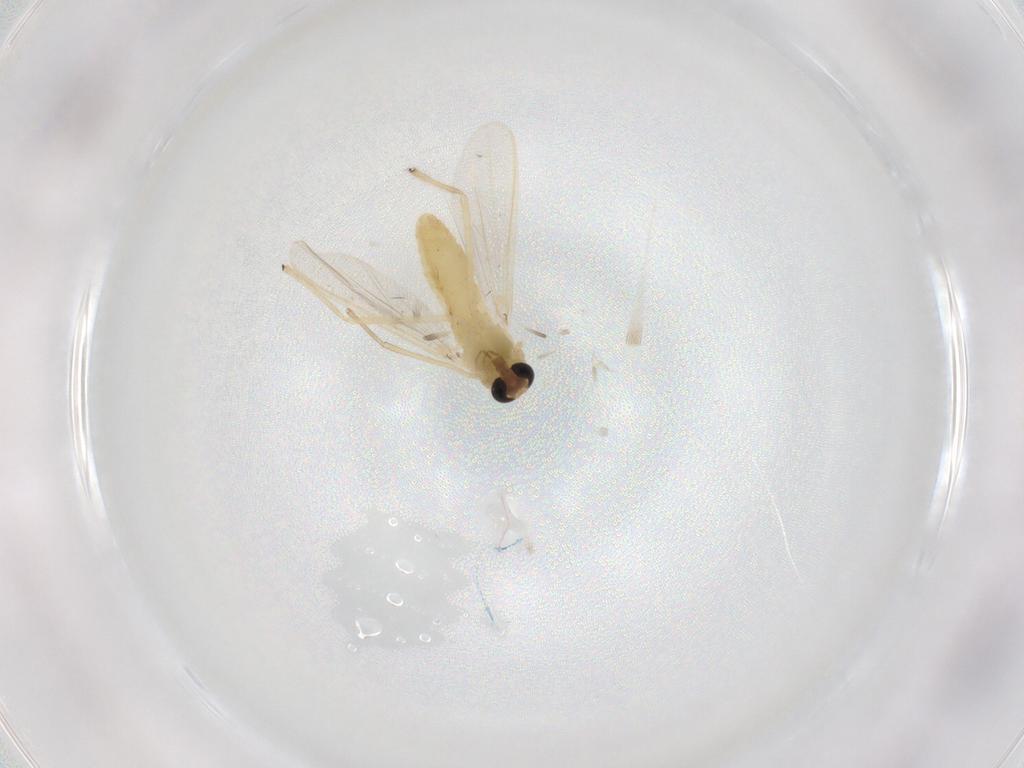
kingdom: Animalia
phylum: Arthropoda
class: Insecta
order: Diptera
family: Chironomidae
